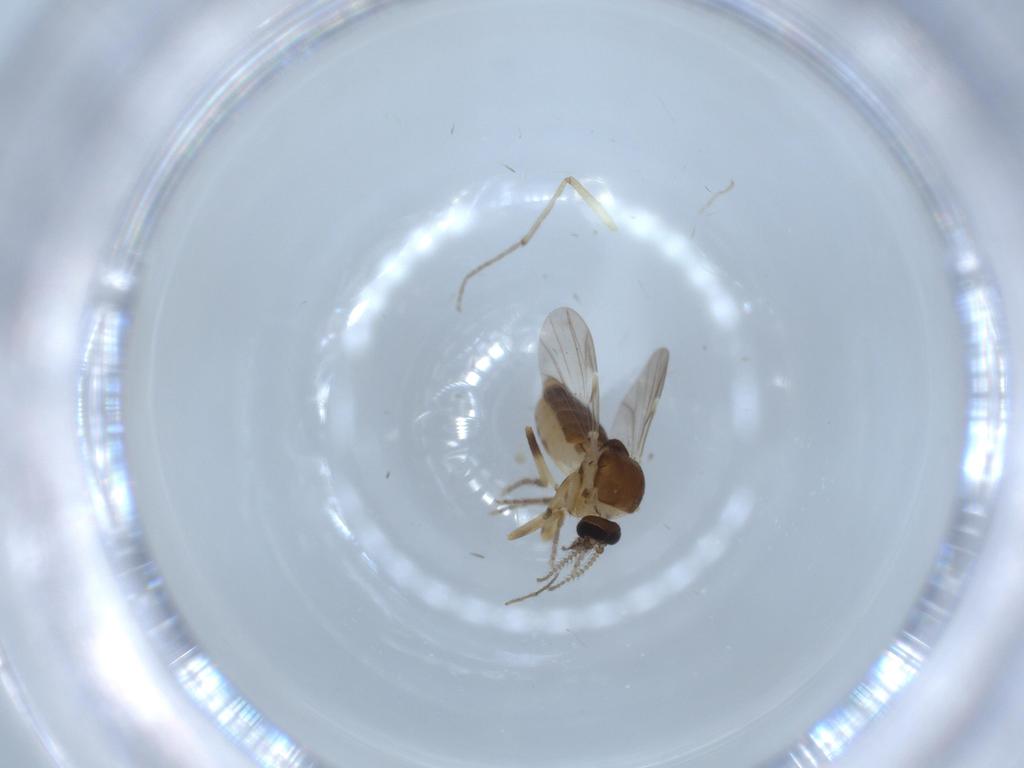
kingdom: Animalia
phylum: Arthropoda
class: Insecta
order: Diptera
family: Ceratopogonidae
